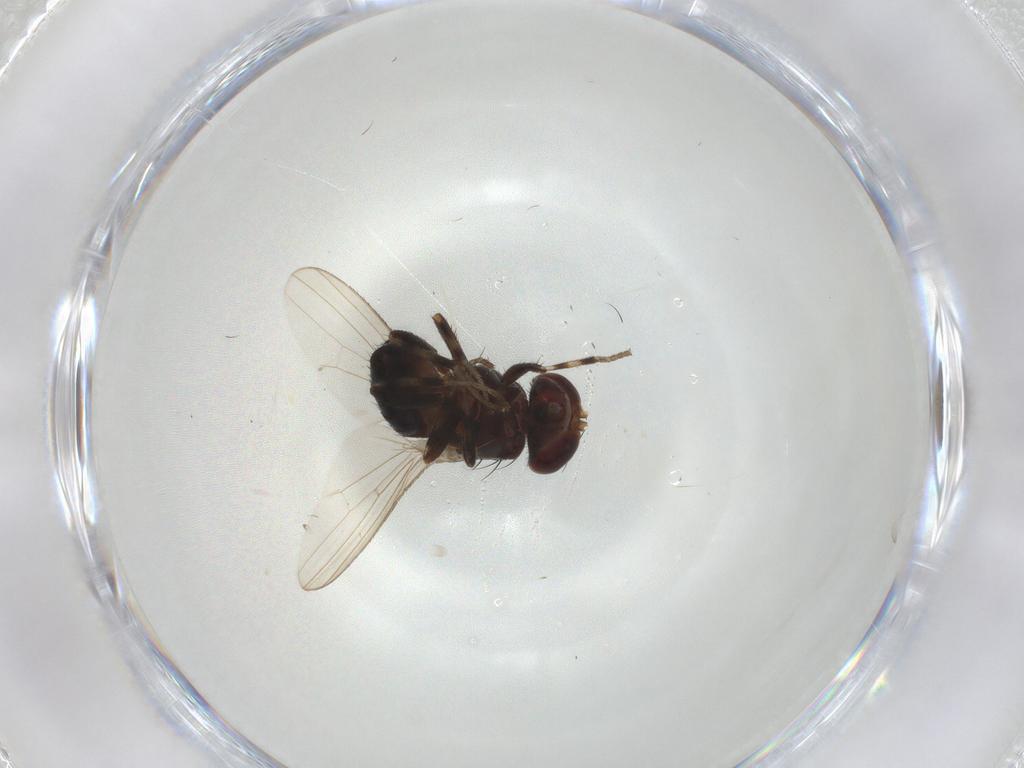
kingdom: Animalia
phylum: Arthropoda
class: Insecta
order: Diptera
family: Heleomyzidae
